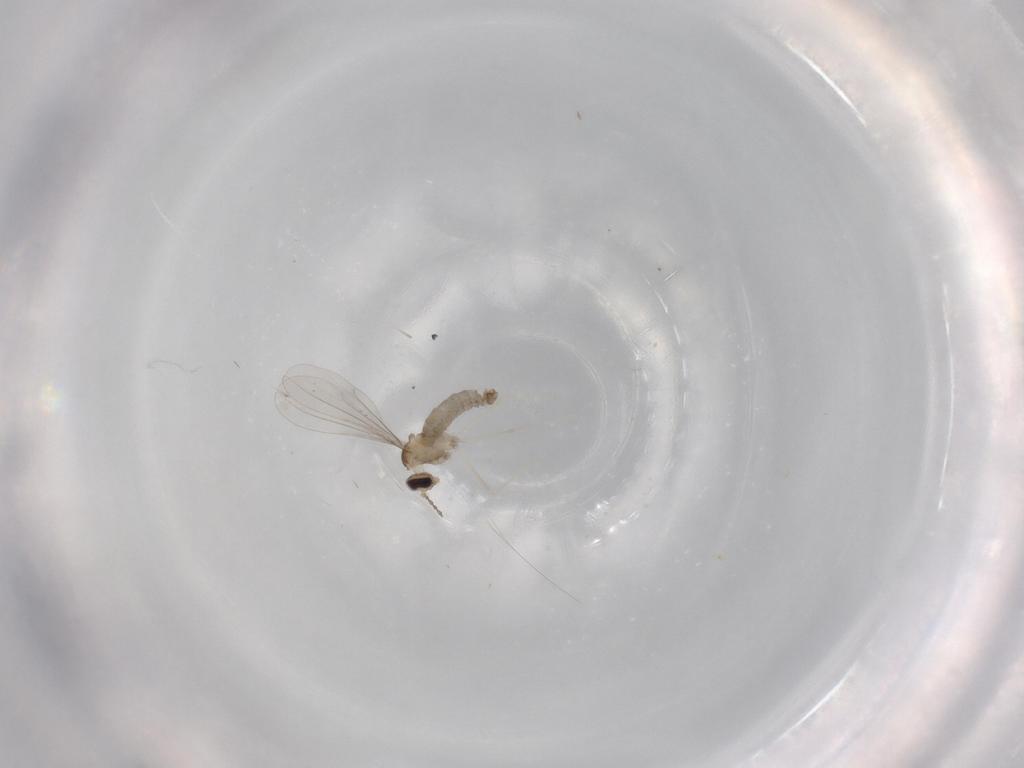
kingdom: Animalia
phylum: Arthropoda
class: Insecta
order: Diptera
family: Cecidomyiidae
